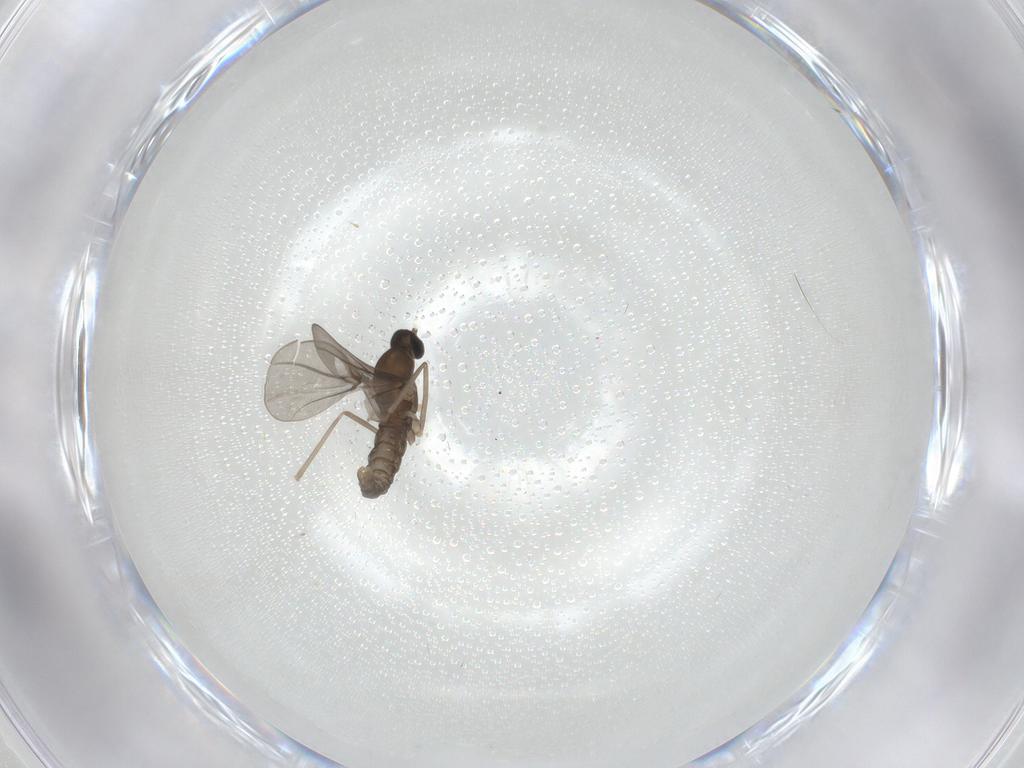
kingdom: Animalia
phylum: Arthropoda
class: Insecta
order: Diptera
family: Cecidomyiidae
